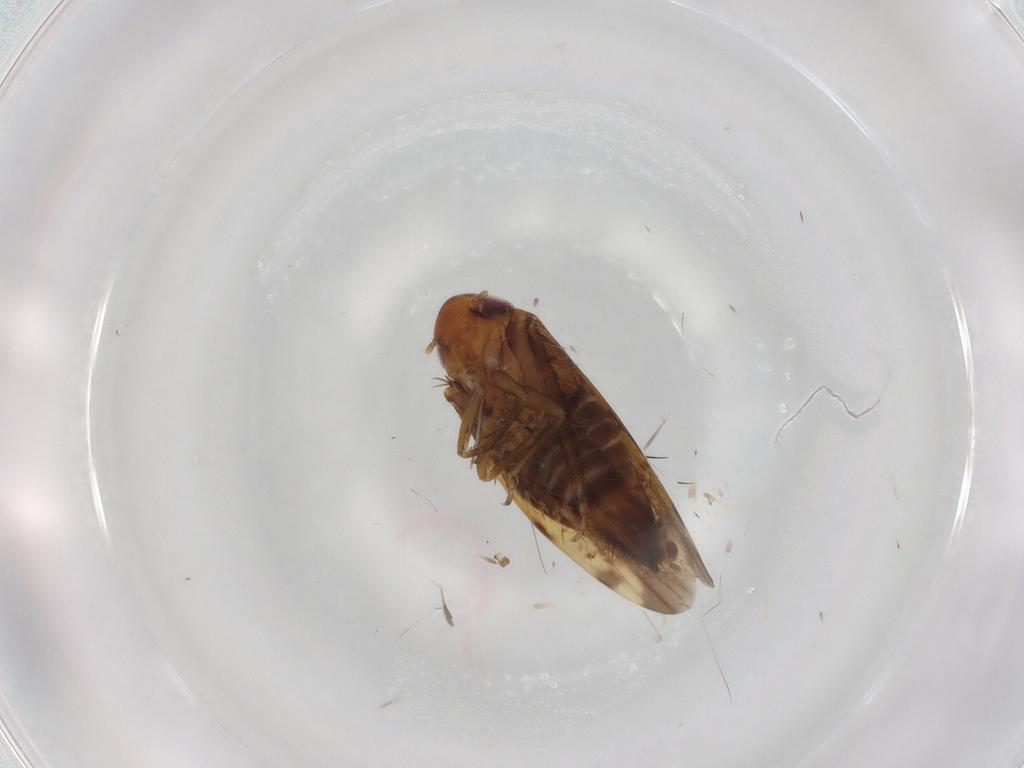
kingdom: Animalia
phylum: Arthropoda
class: Insecta
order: Hemiptera
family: Cicadellidae
